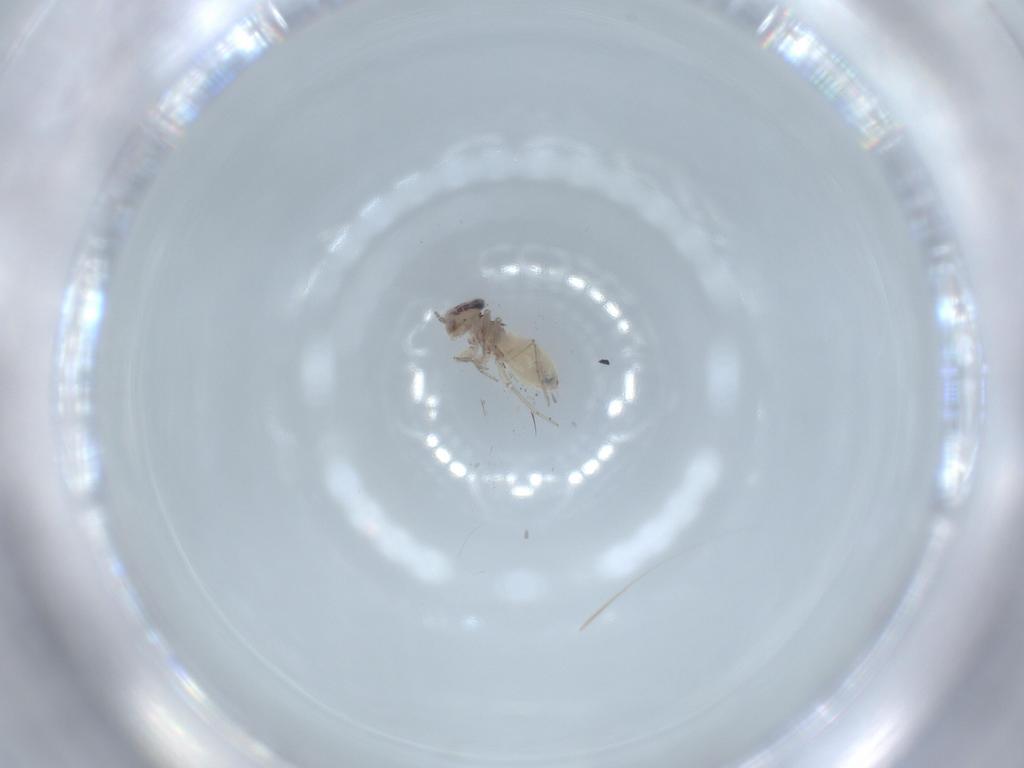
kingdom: Animalia
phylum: Arthropoda
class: Insecta
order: Psocodea
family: Lepidopsocidae
